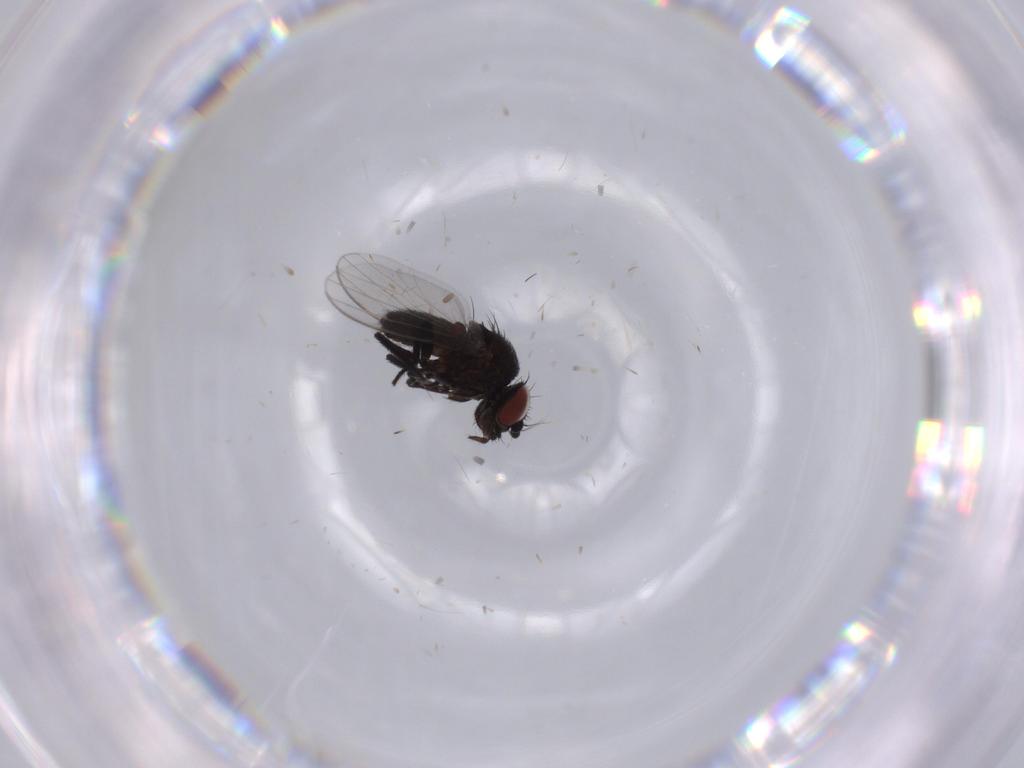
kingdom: Animalia
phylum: Arthropoda
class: Insecta
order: Diptera
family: Milichiidae
